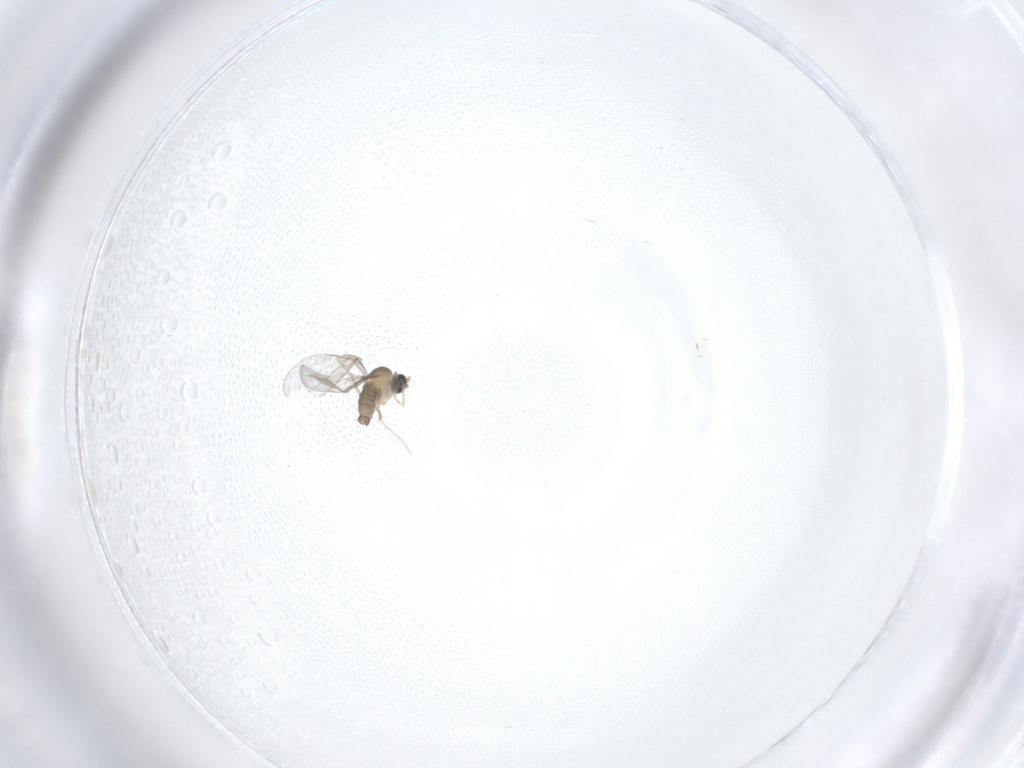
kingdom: Animalia
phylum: Arthropoda
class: Insecta
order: Diptera
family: Cecidomyiidae
